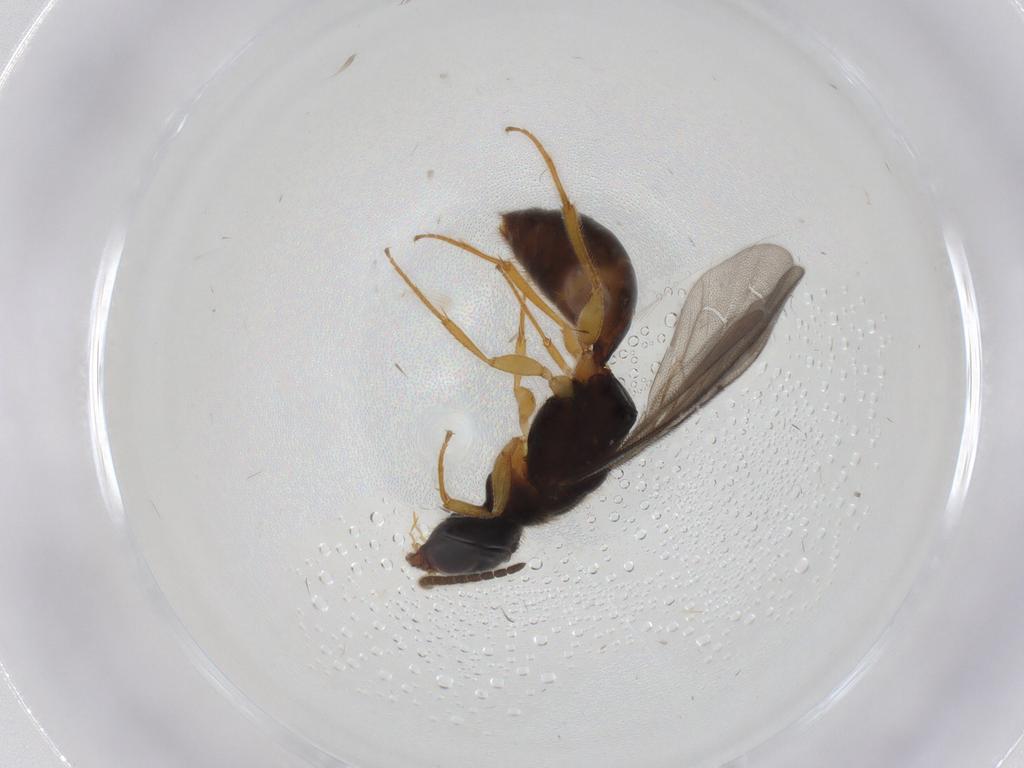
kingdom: Animalia
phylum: Arthropoda
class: Insecta
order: Hymenoptera
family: Bethylidae
